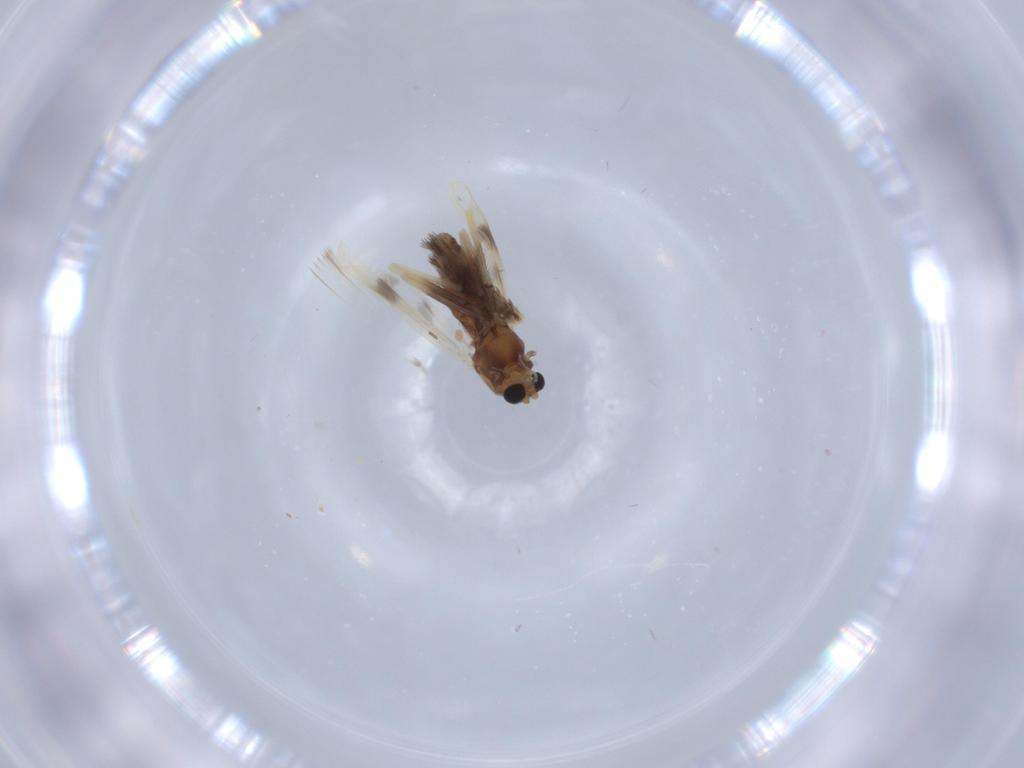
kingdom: Animalia
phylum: Arthropoda
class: Insecta
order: Diptera
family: Chironomidae
